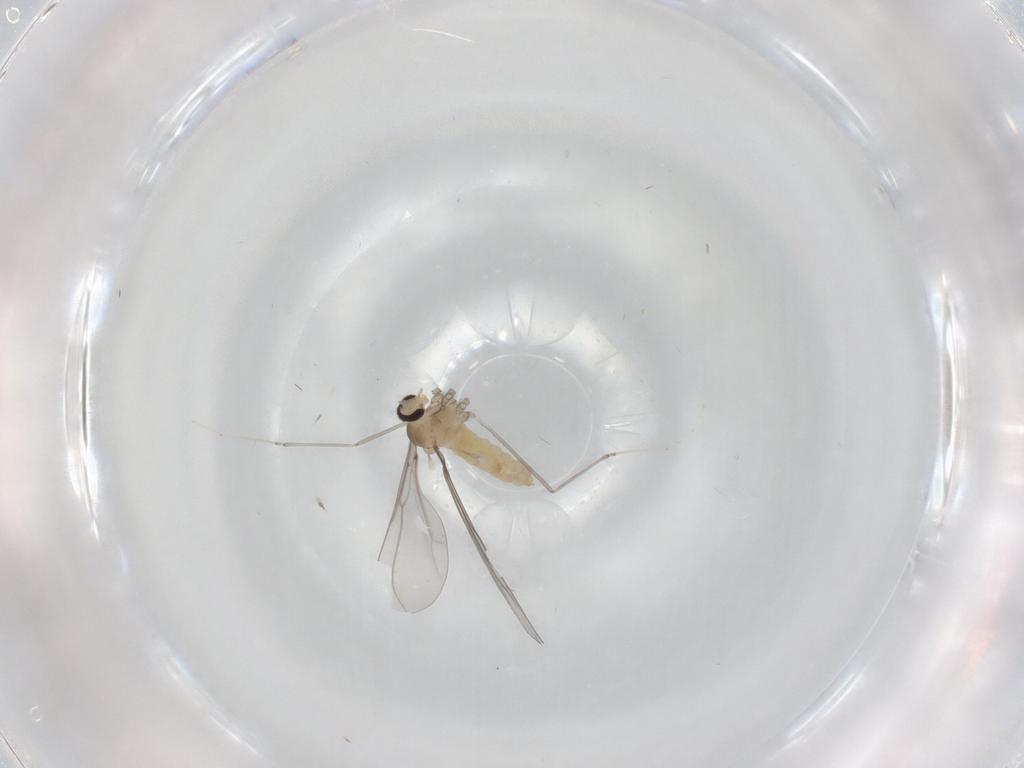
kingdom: Animalia
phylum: Arthropoda
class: Insecta
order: Diptera
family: Cecidomyiidae
